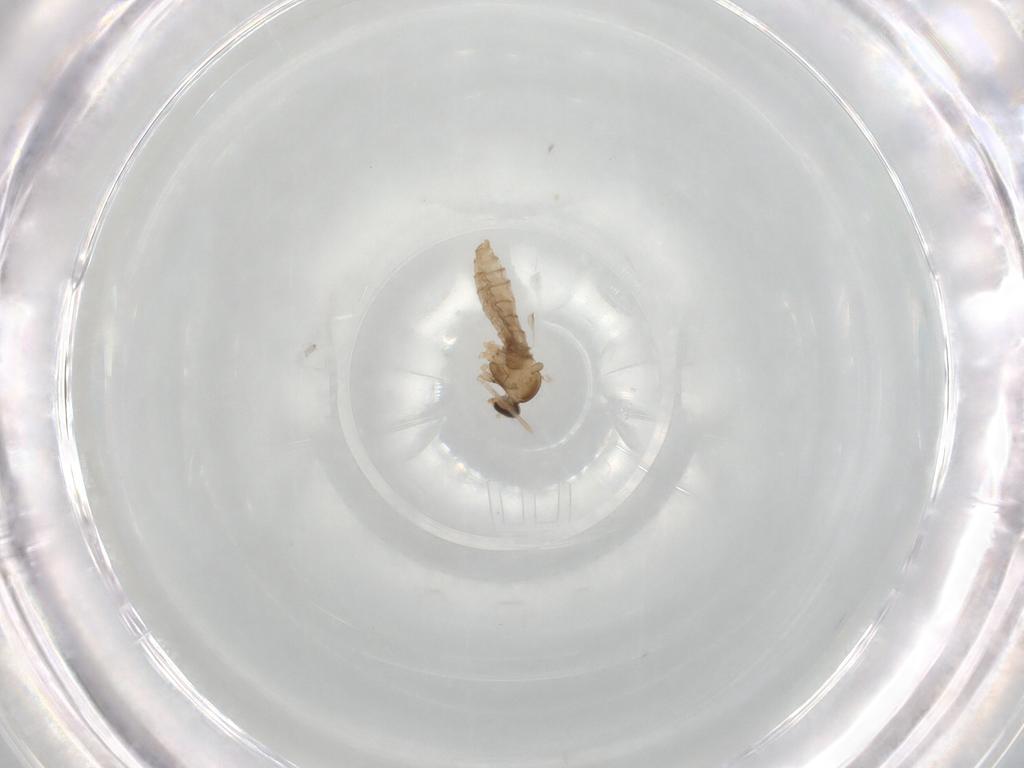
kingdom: Animalia
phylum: Arthropoda
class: Insecta
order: Diptera
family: Cecidomyiidae
